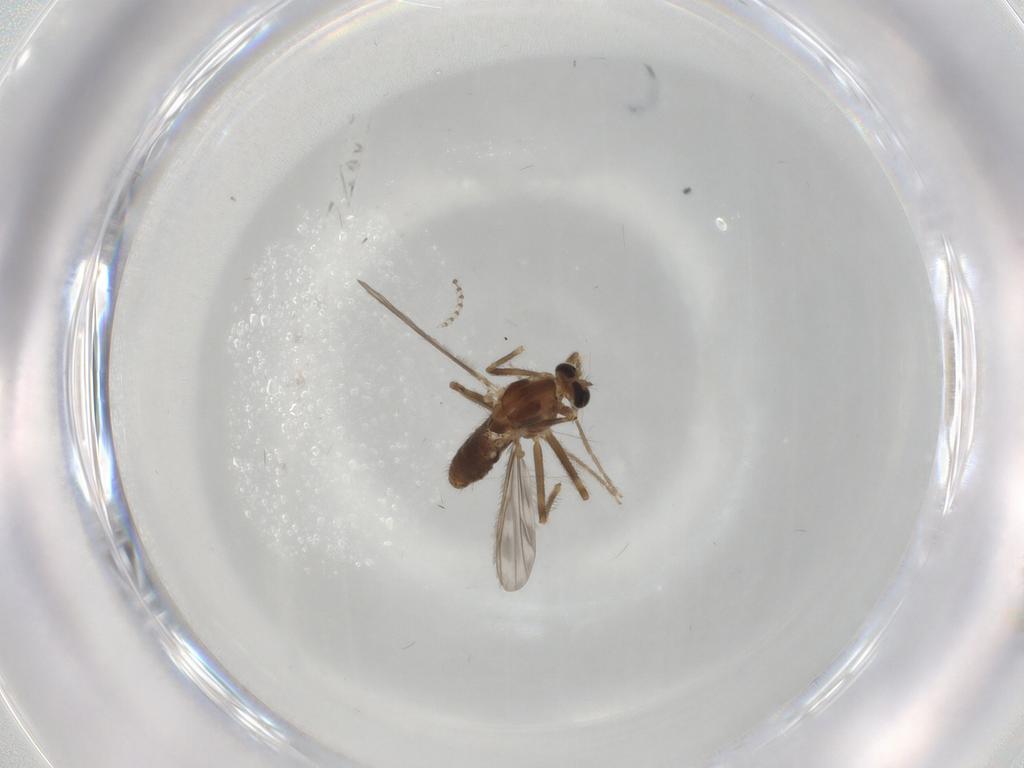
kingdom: Animalia
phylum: Arthropoda
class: Insecta
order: Diptera
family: Chironomidae
